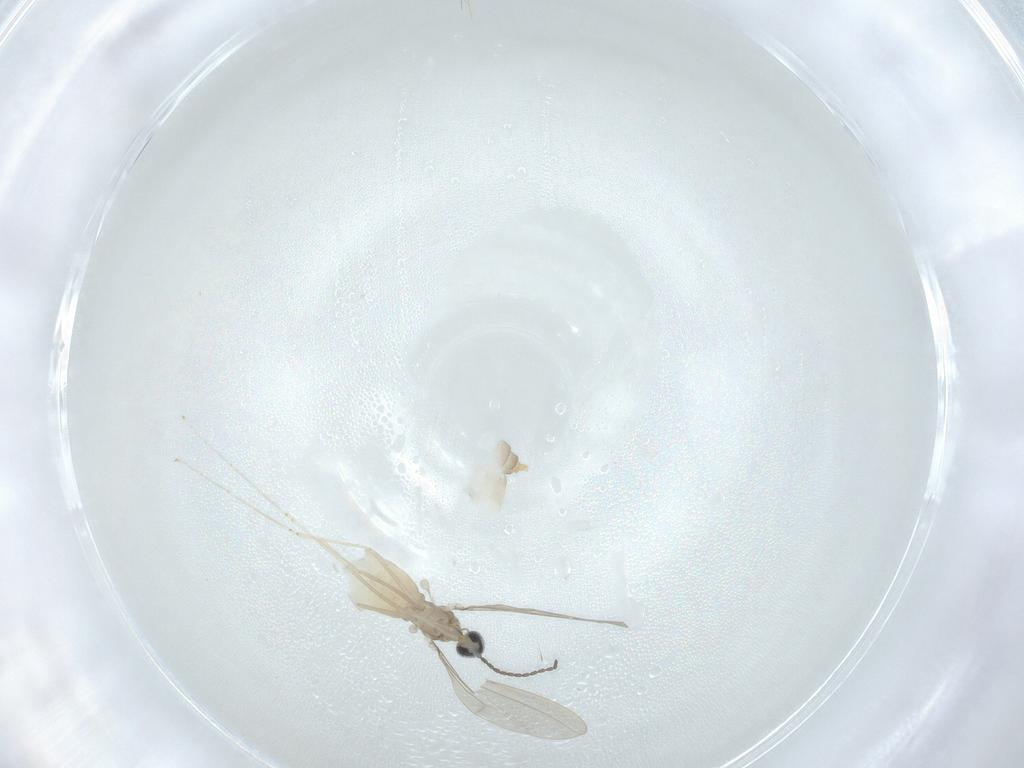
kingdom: Animalia
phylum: Arthropoda
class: Insecta
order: Diptera
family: Cecidomyiidae
